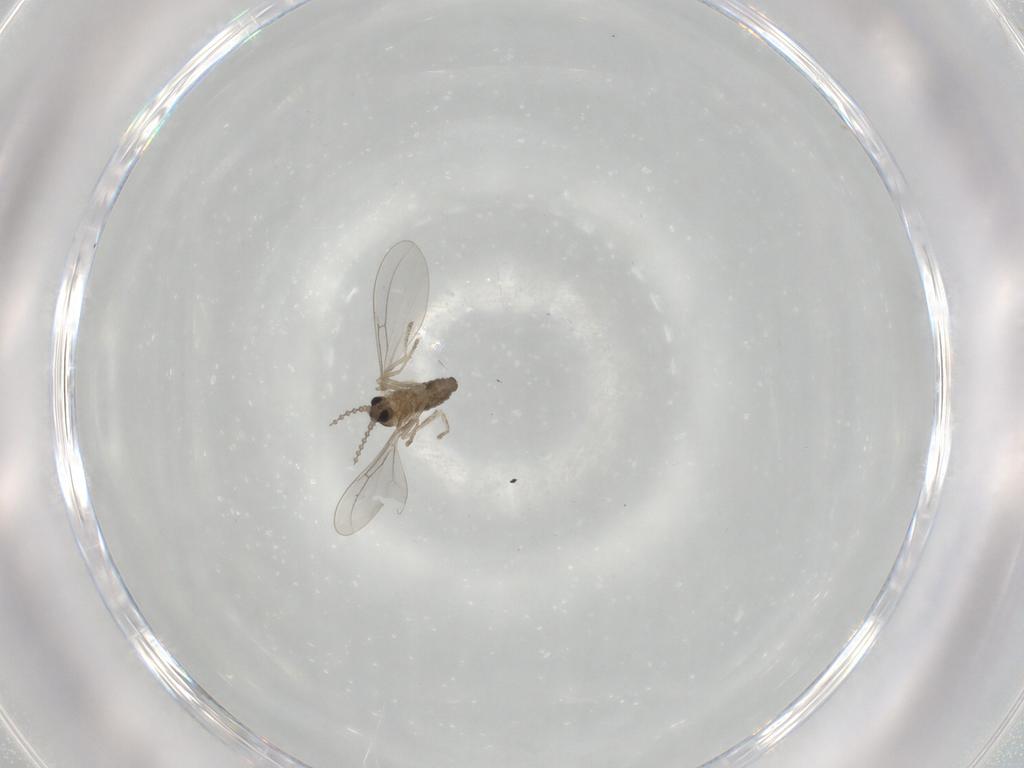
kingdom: Animalia
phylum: Arthropoda
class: Insecta
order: Diptera
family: Cecidomyiidae
